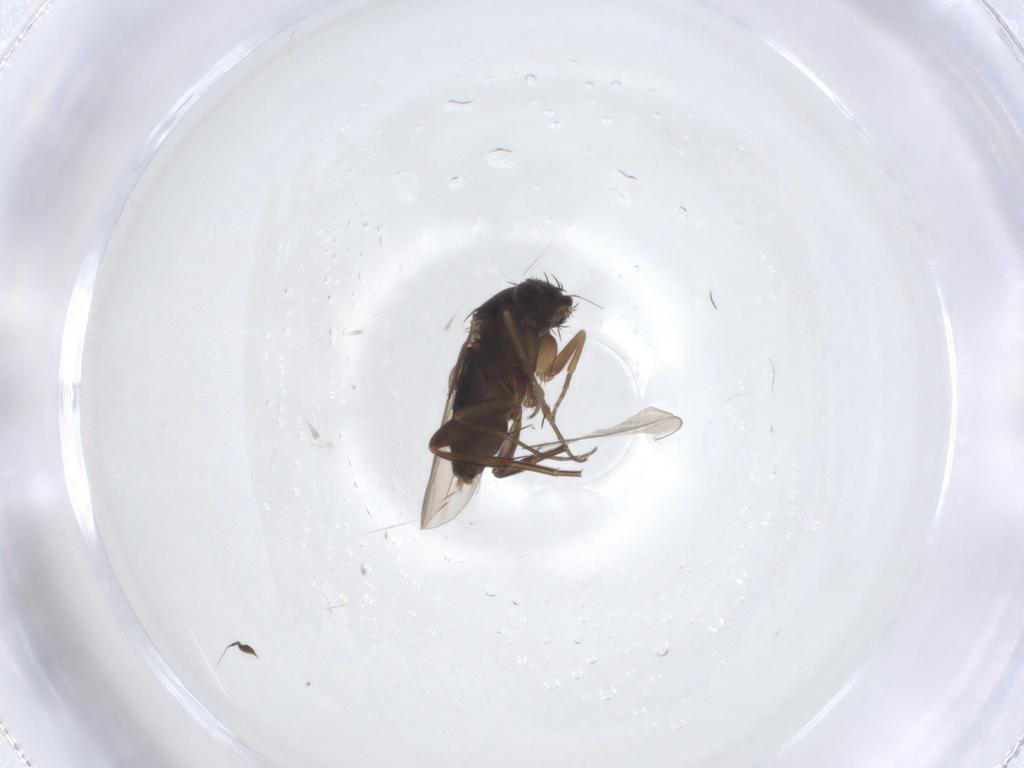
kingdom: Animalia
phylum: Arthropoda
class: Insecta
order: Diptera
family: Pipunculidae
